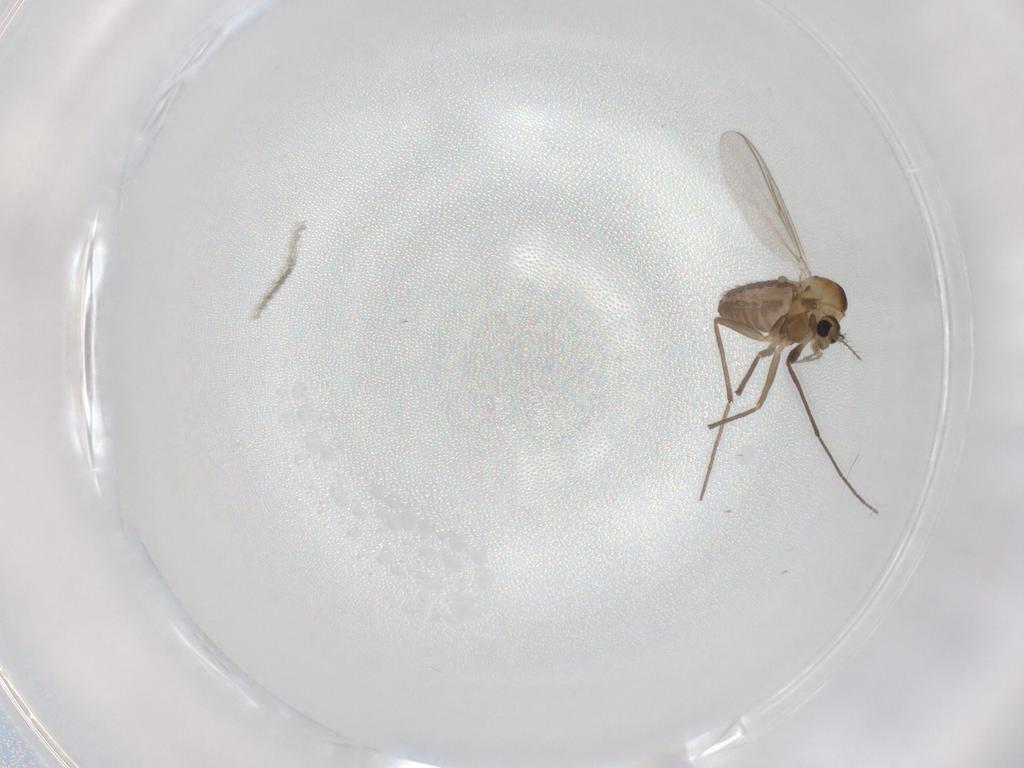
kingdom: Animalia
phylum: Arthropoda
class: Insecta
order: Diptera
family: Chironomidae
